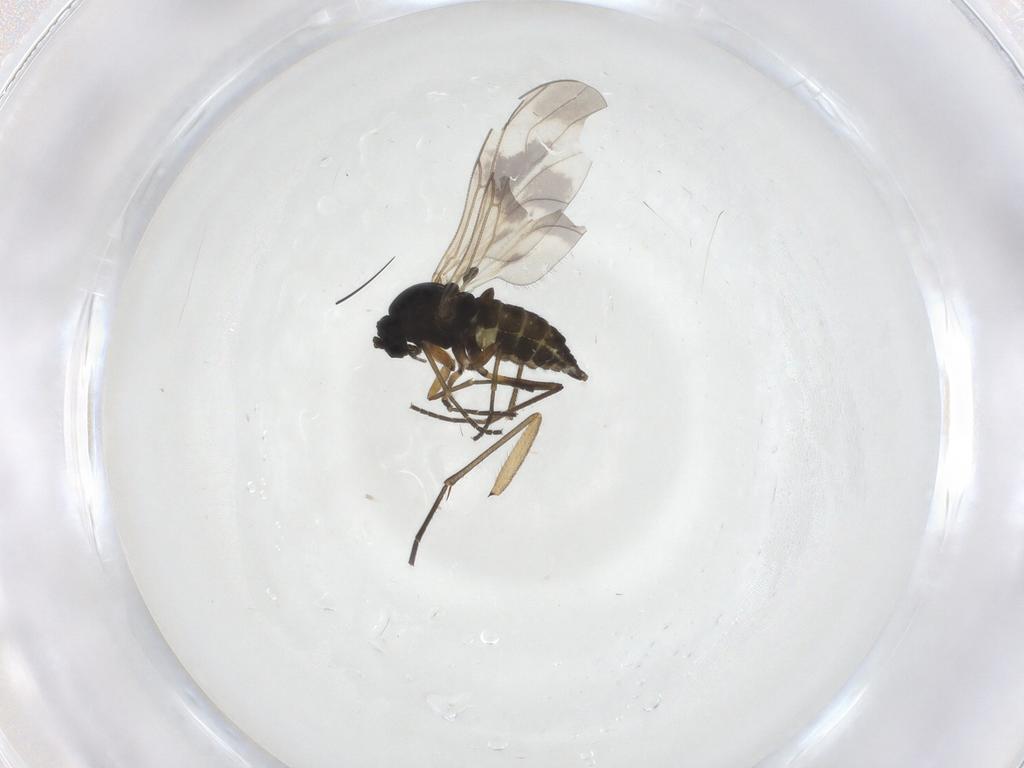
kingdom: Animalia
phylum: Arthropoda
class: Insecta
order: Diptera
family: Sciaridae
